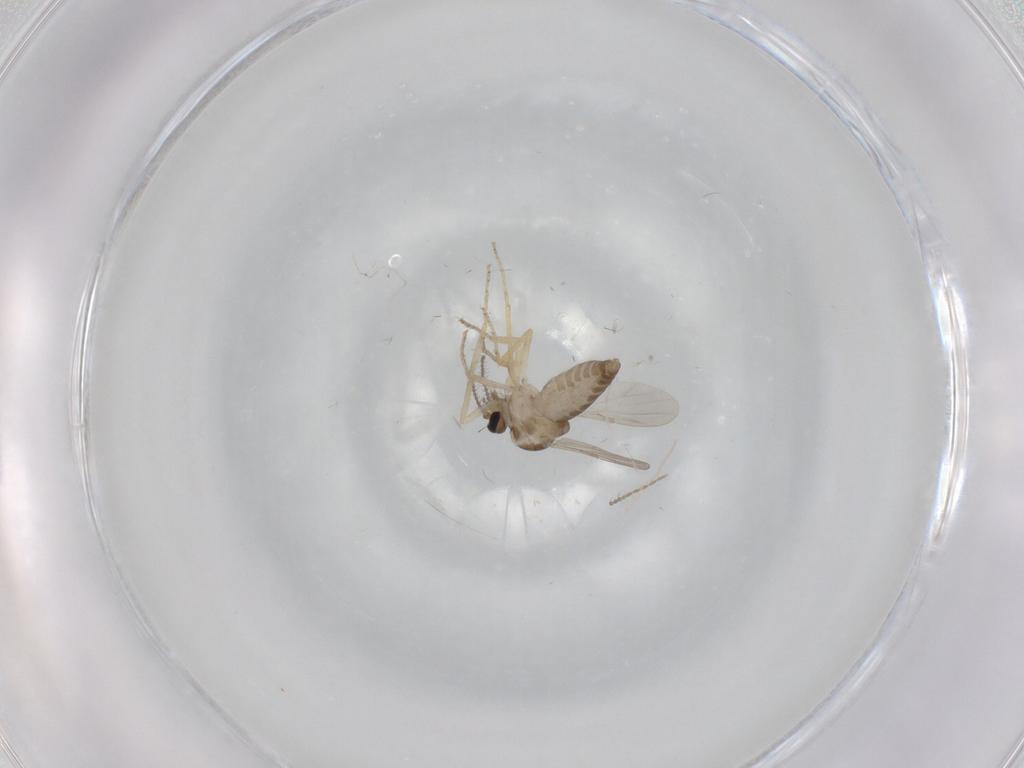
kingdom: Animalia
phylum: Arthropoda
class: Insecta
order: Diptera
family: Ceratopogonidae
